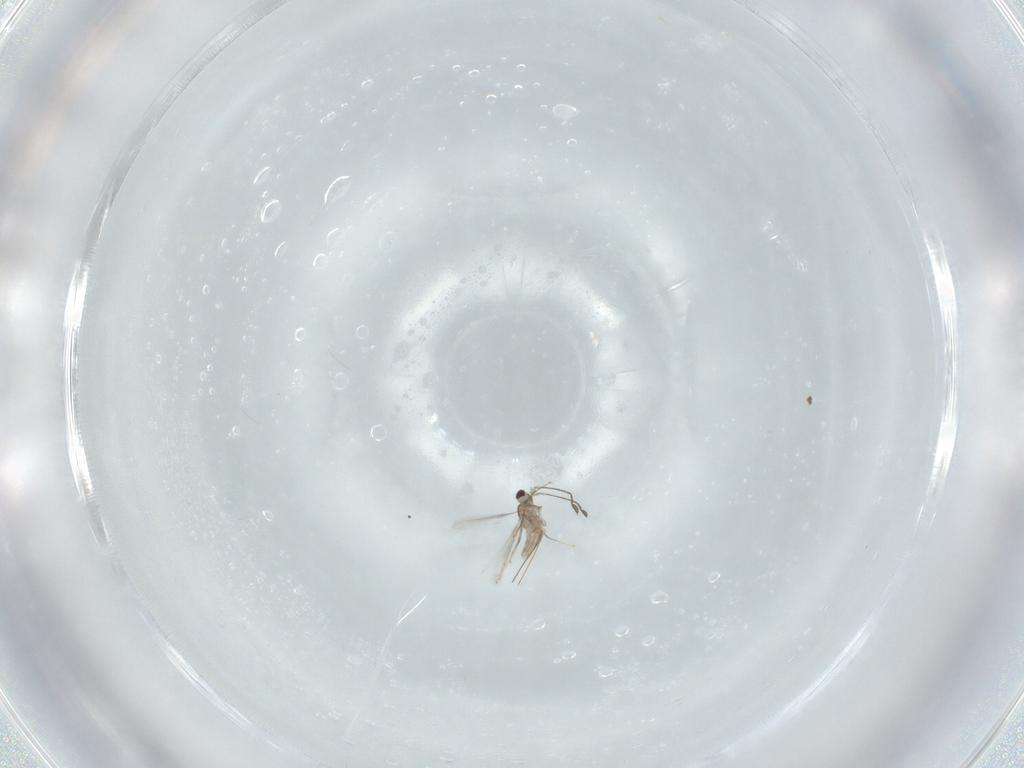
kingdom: Animalia
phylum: Arthropoda
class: Insecta
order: Hymenoptera
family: Mymaridae
